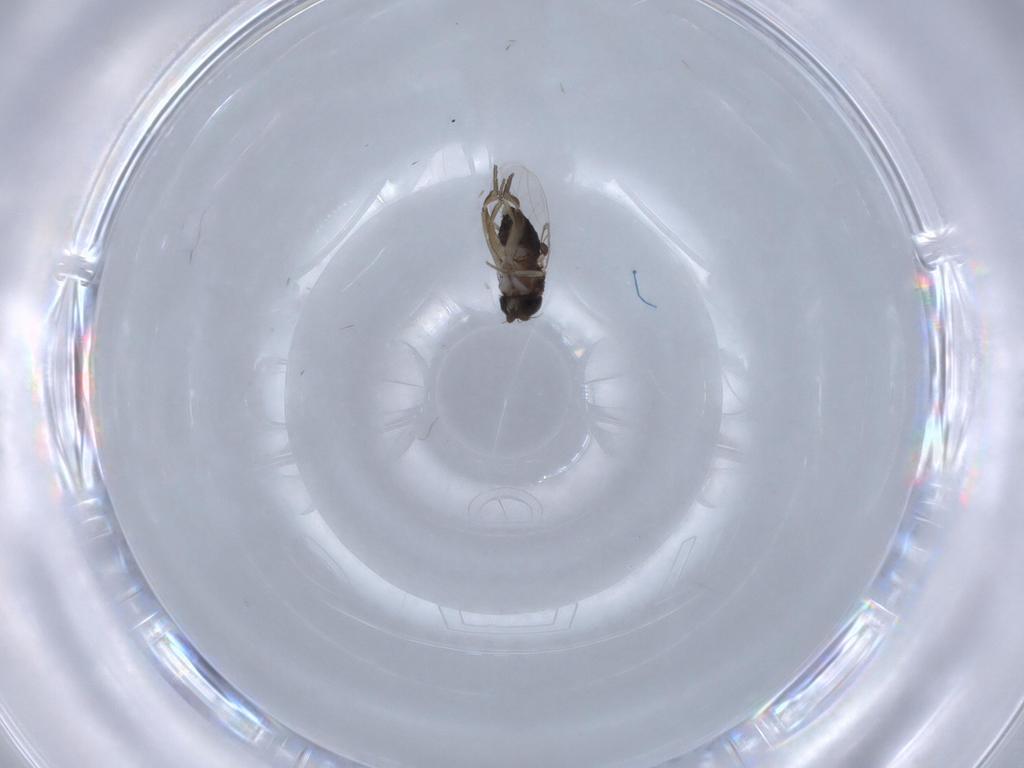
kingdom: Animalia
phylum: Arthropoda
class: Insecta
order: Diptera
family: Phoridae
